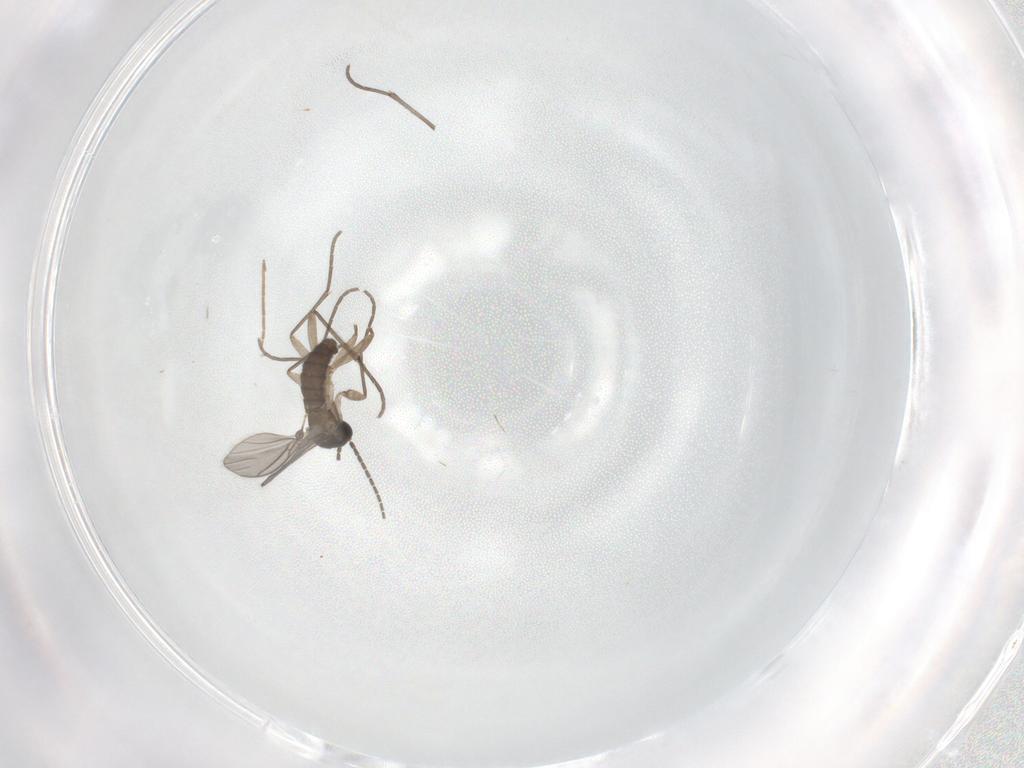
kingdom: Animalia
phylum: Arthropoda
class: Insecta
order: Diptera
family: Sciaridae
